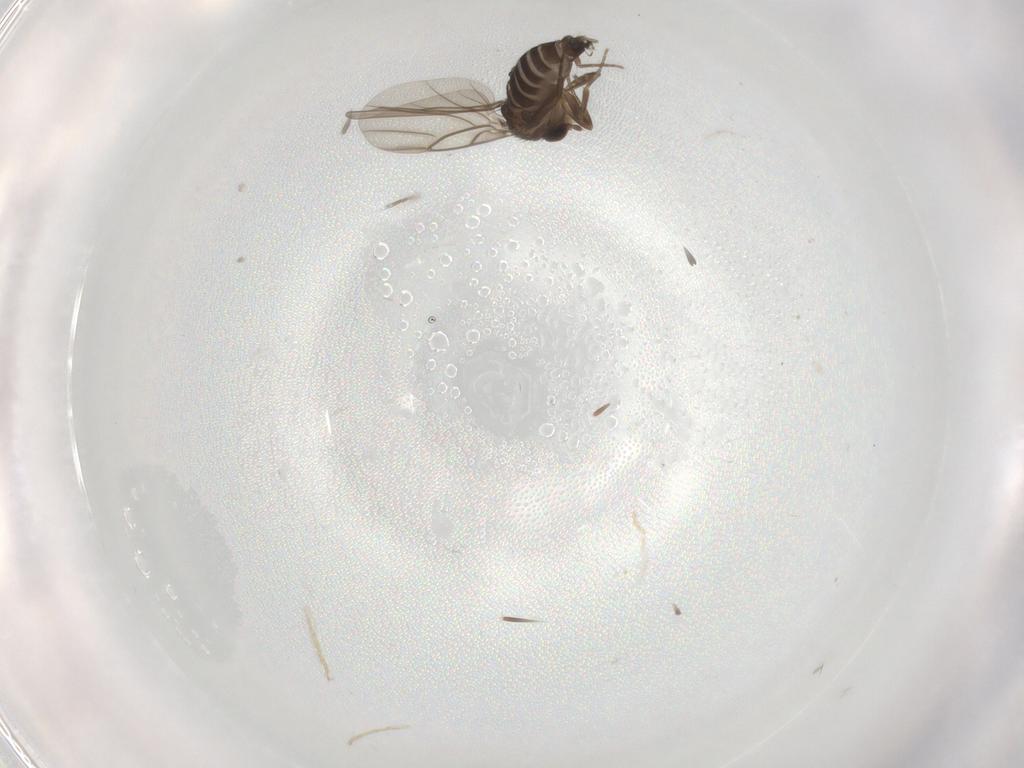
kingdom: Animalia
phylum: Arthropoda
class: Insecta
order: Diptera
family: Phoridae
